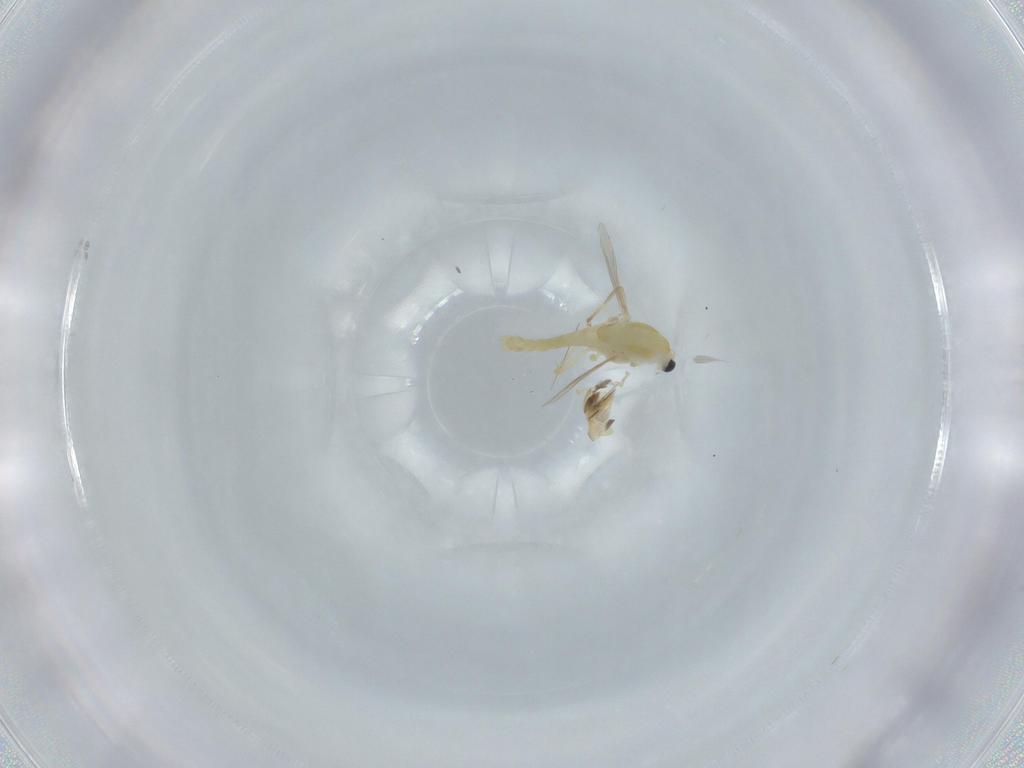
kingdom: Animalia
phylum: Arthropoda
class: Insecta
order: Diptera
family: Chironomidae
